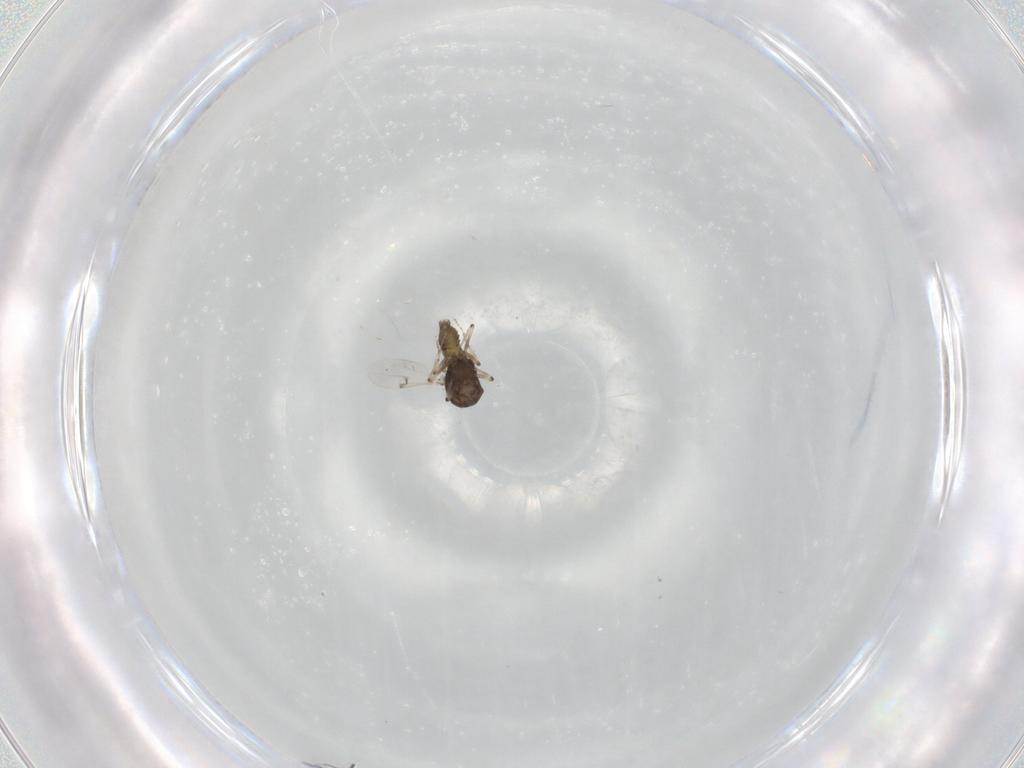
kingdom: Animalia
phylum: Arthropoda
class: Insecta
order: Diptera
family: Ceratopogonidae
